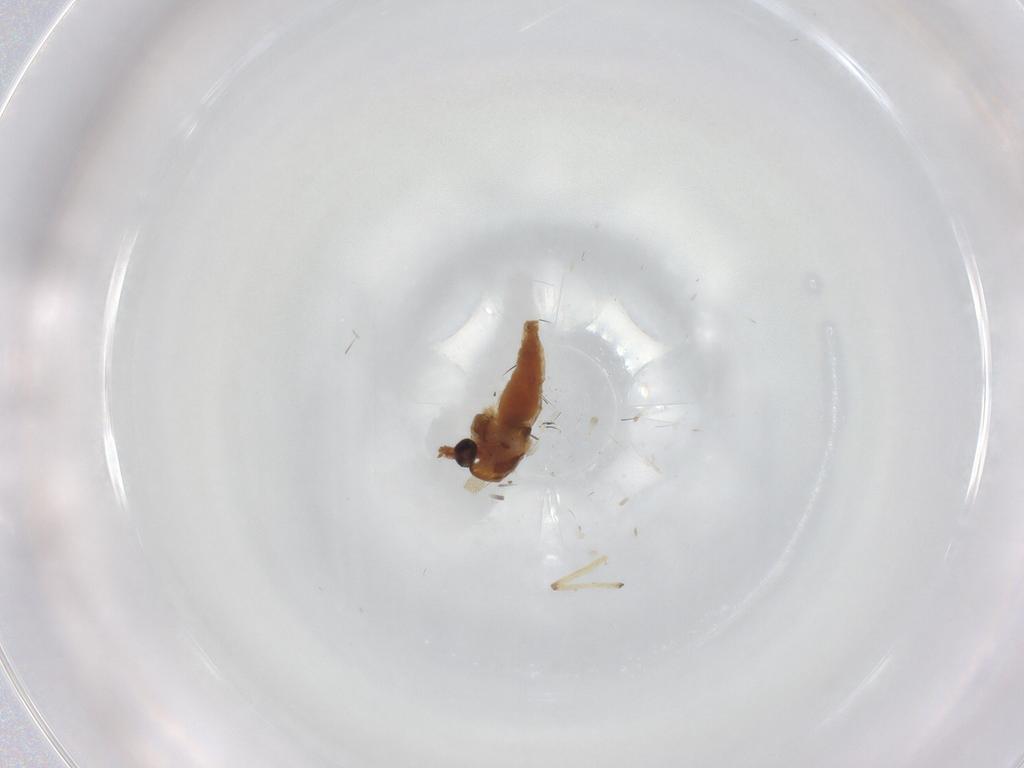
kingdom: Animalia
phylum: Arthropoda
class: Insecta
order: Diptera
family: Chironomidae
